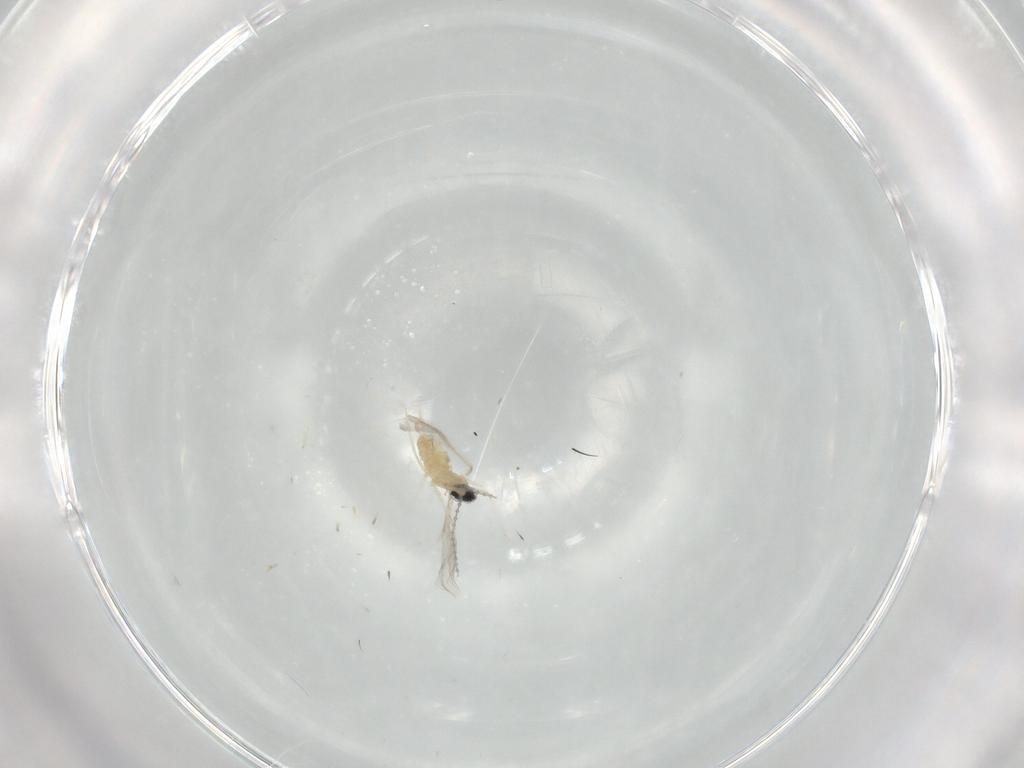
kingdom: Animalia
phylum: Arthropoda
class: Insecta
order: Diptera
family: Cecidomyiidae
